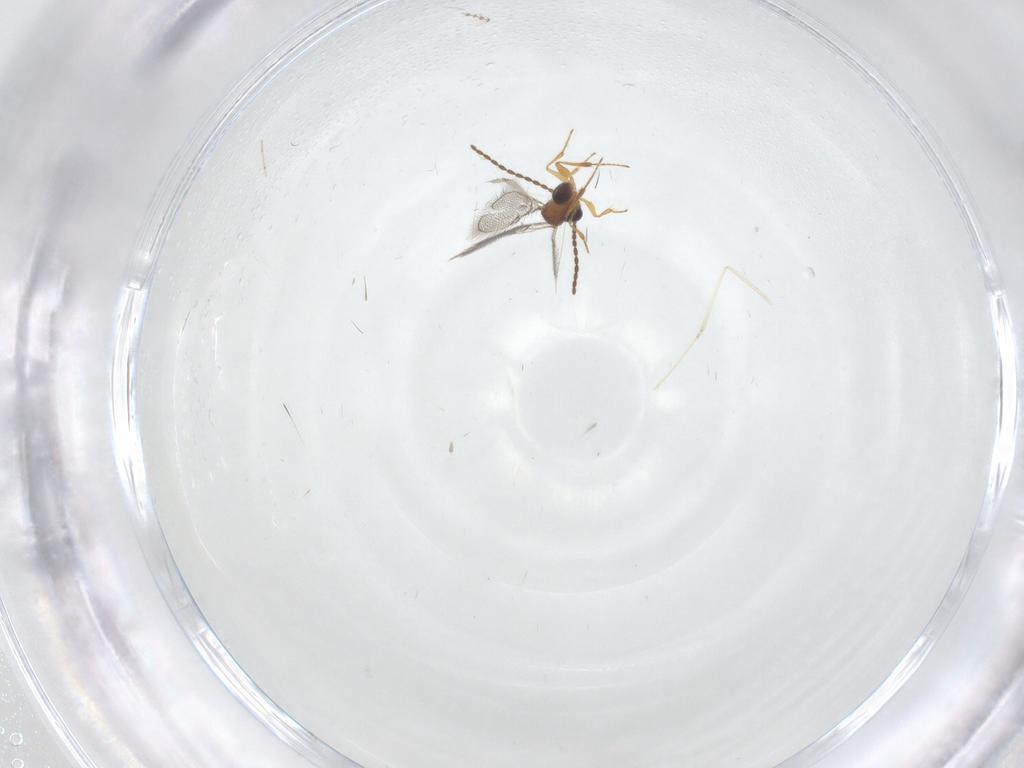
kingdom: Animalia
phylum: Arthropoda
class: Insecta
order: Hymenoptera
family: Figitidae
